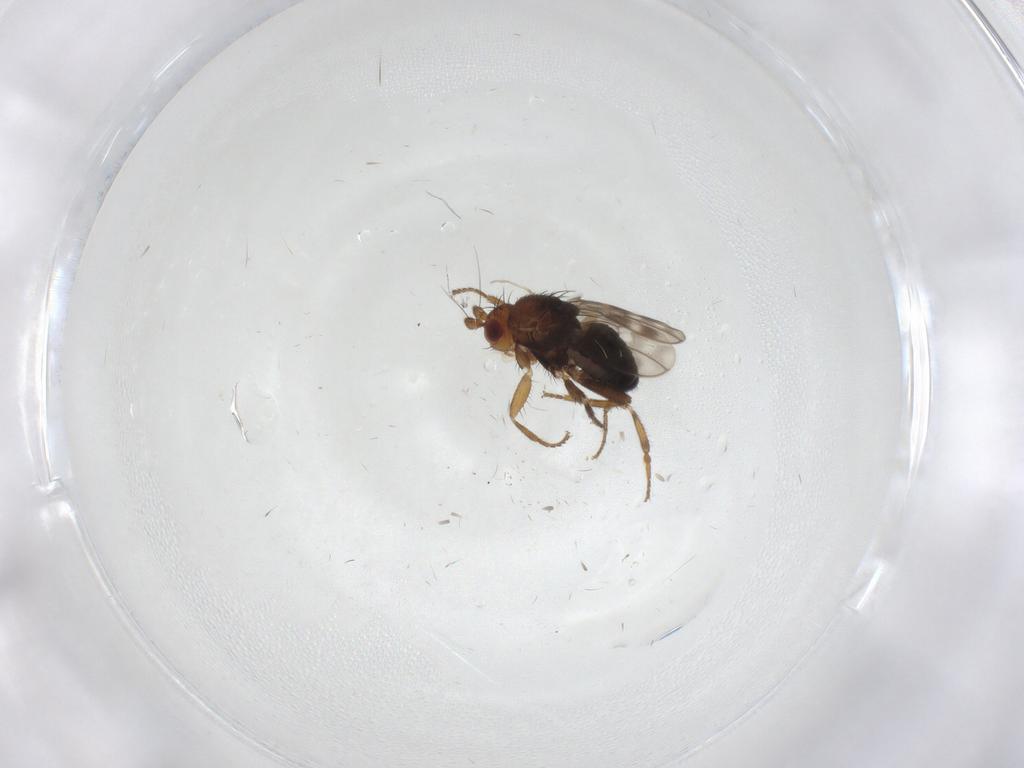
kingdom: Animalia
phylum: Arthropoda
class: Insecta
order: Diptera
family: Sphaeroceridae
